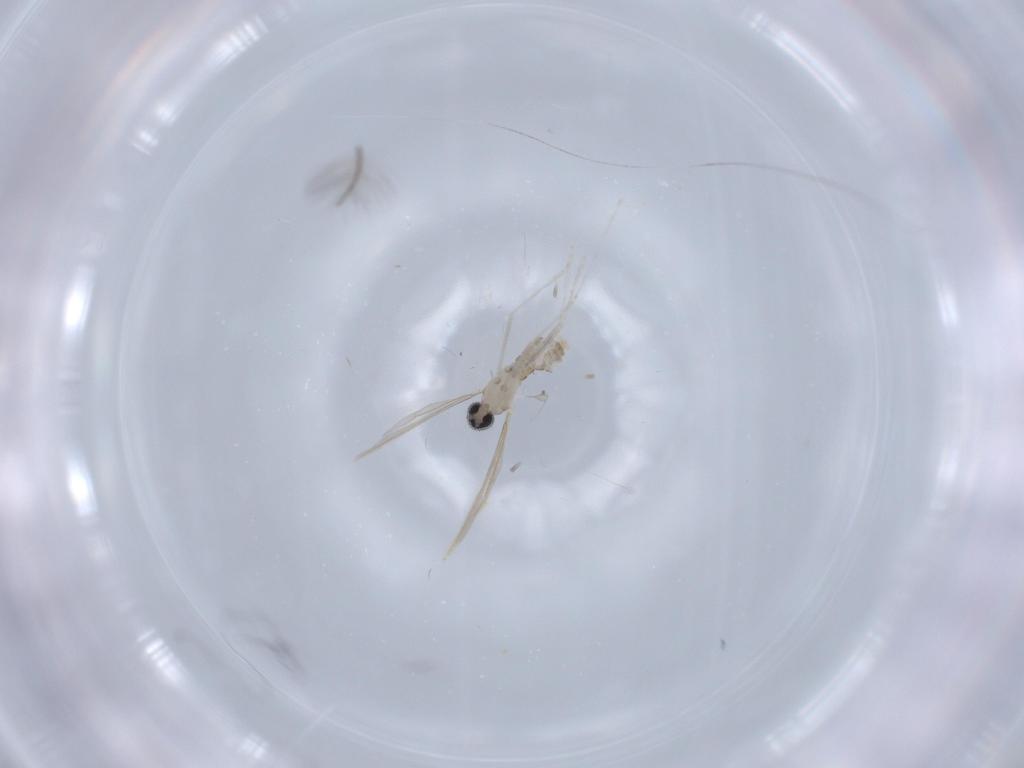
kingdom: Animalia
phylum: Arthropoda
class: Insecta
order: Diptera
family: Cecidomyiidae
